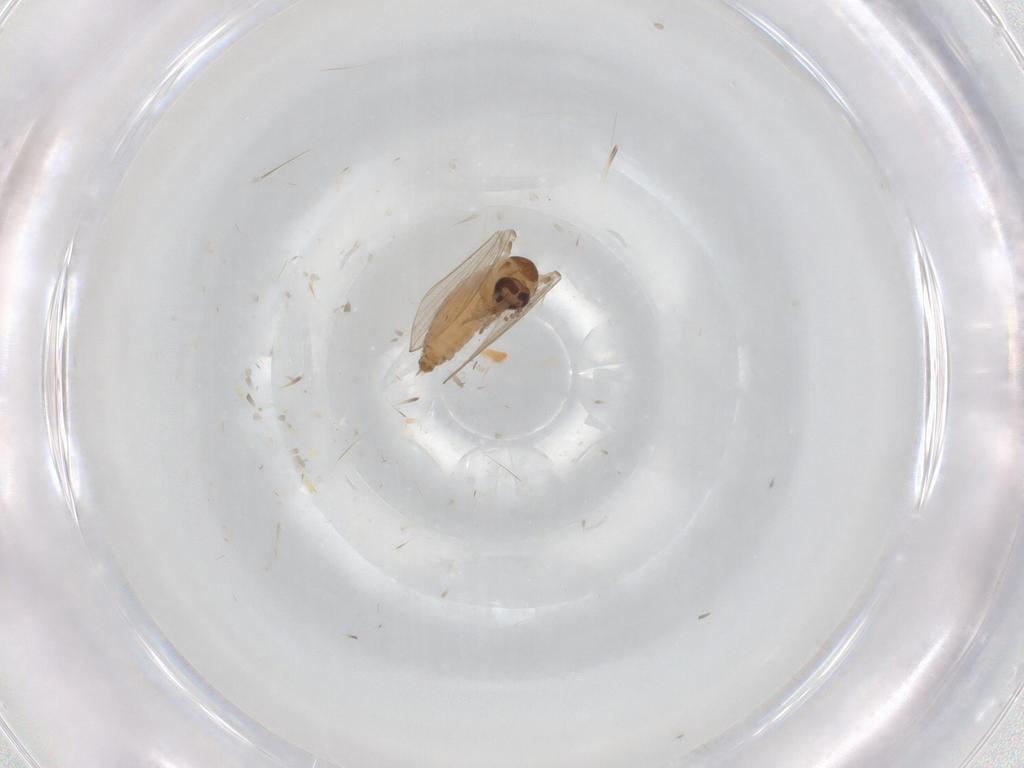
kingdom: Animalia
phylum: Arthropoda
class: Insecta
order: Diptera
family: Psychodidae
